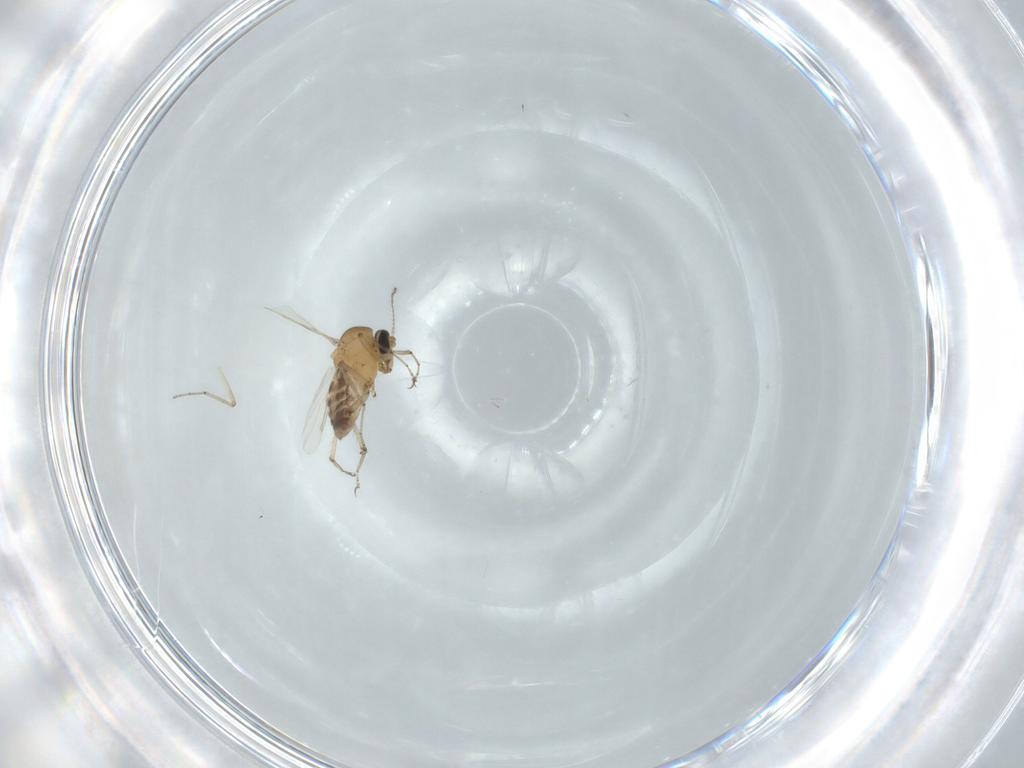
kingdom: Animalia
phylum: Arthropoda
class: Insecta
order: Diptera
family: Ceratopogonidae
